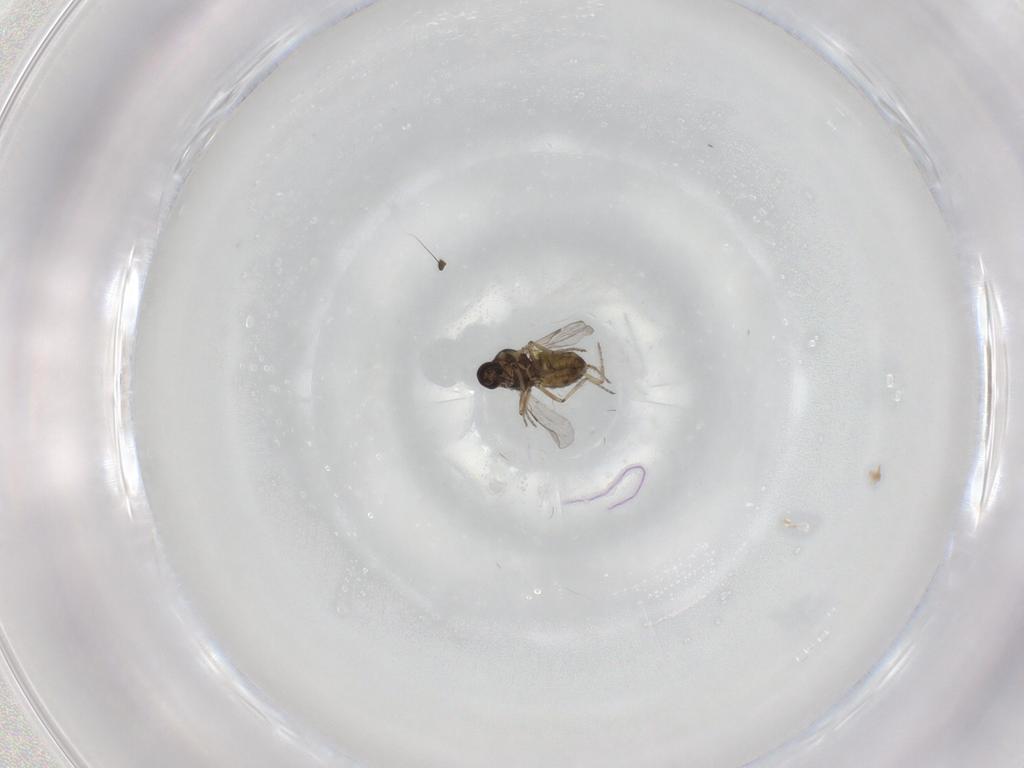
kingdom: Animalia
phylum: Arthropoda
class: Insecta
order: Diptera
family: Ceratopogonidae
